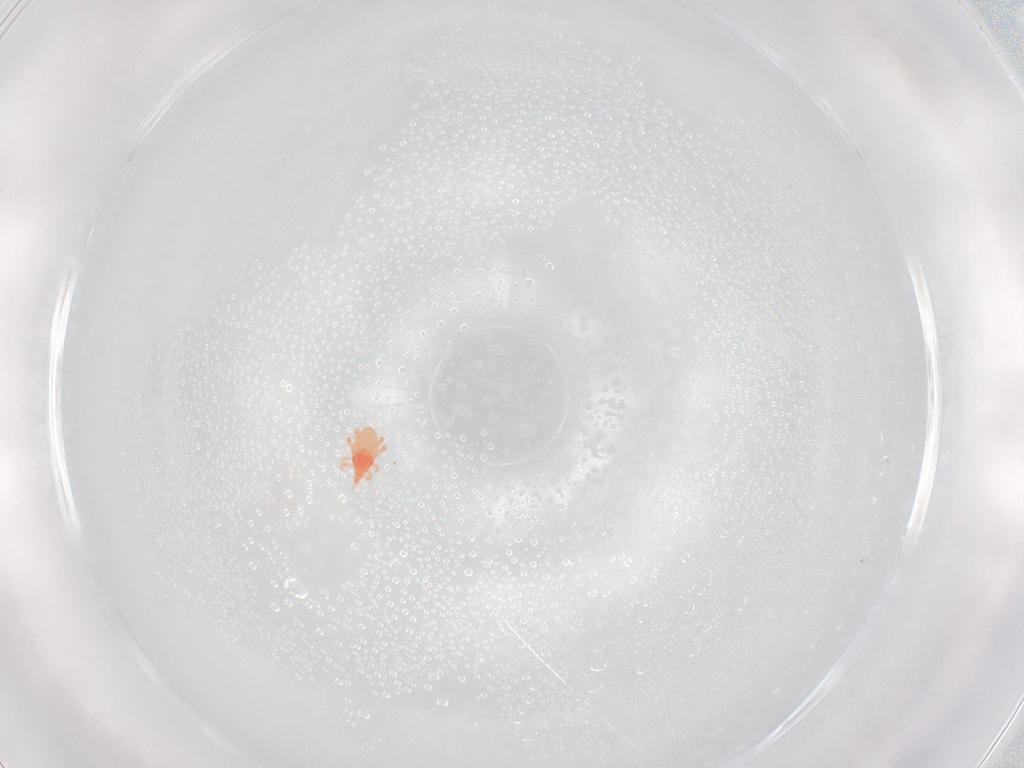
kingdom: Animalia
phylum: Arthropoda
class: Arachnida
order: Trombidiformes
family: Bdellidae
